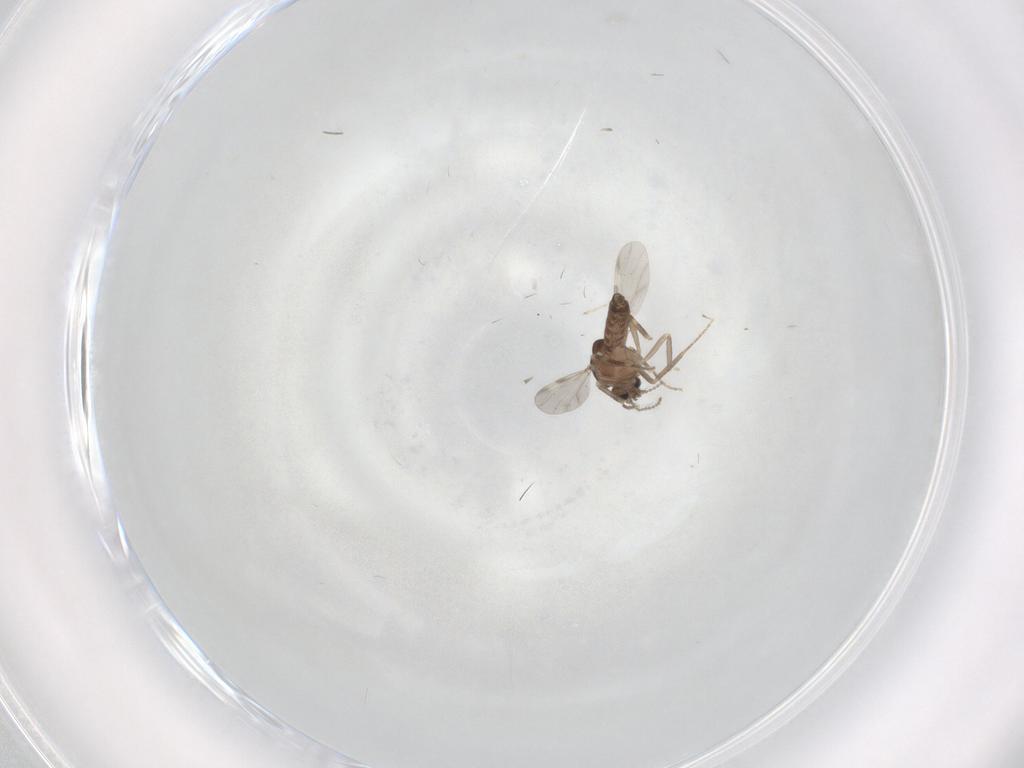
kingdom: Animalia
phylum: Arthropoda
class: Insecta
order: Diptera
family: Ceratopogonidae
